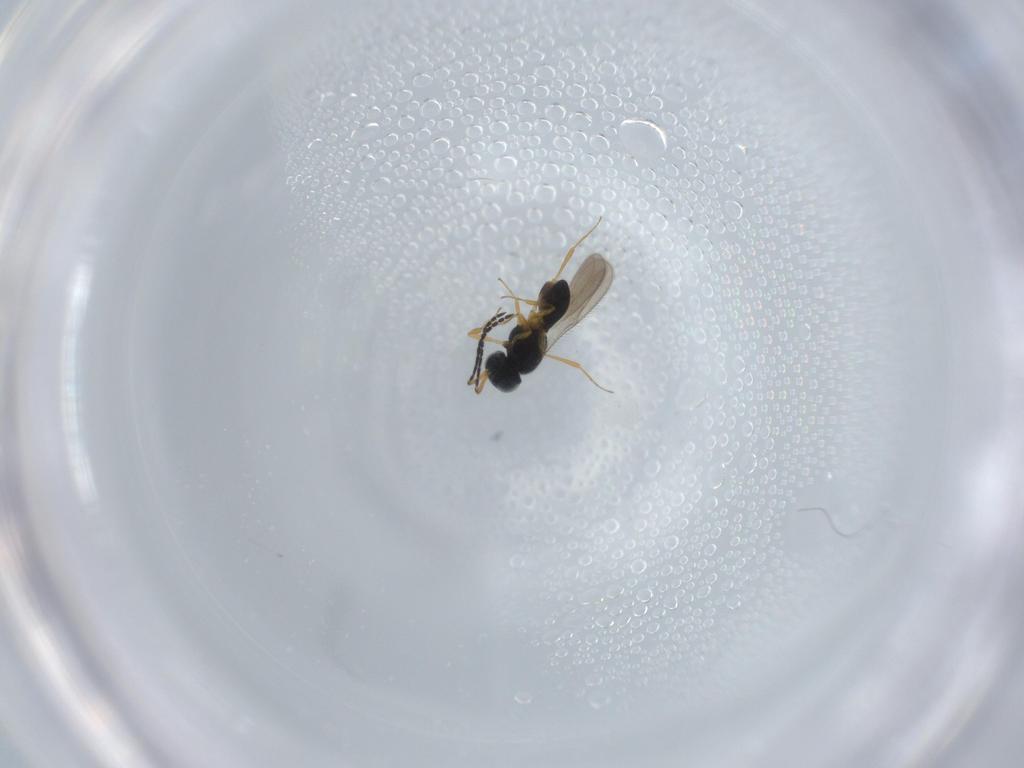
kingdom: Animalia
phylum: Arthropoda
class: Insecta
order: Hymenoptera
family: Scelionidae
